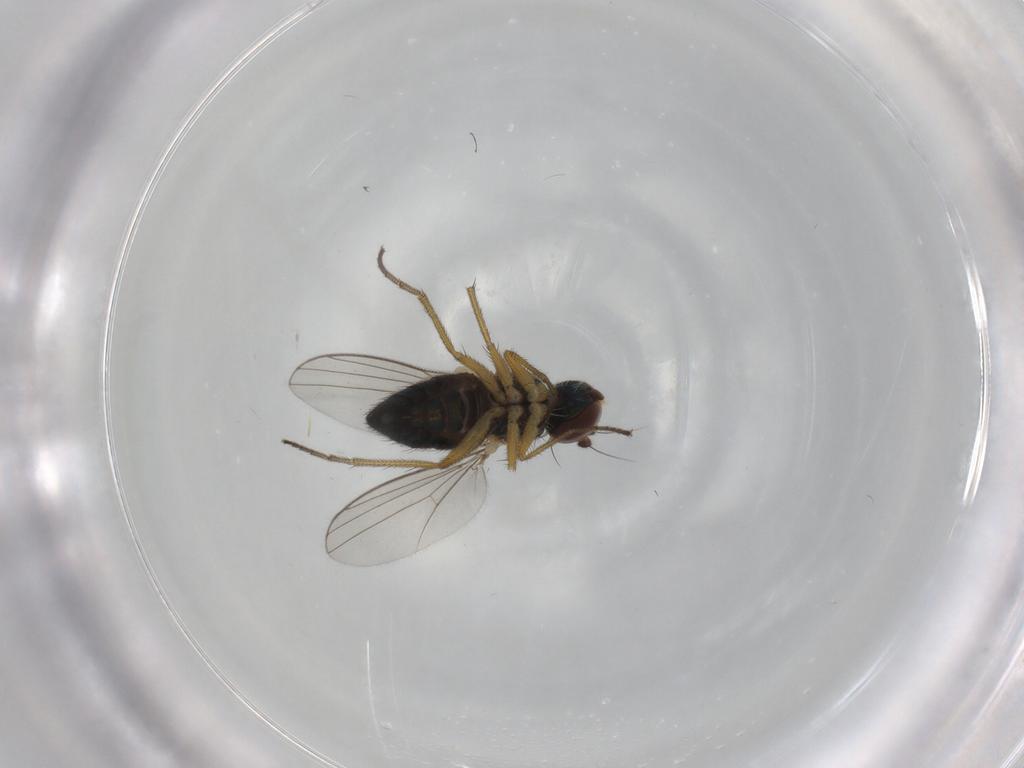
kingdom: Animalia
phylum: Arthropoda
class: Insecta
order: Diptera
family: Dolichopodidae
